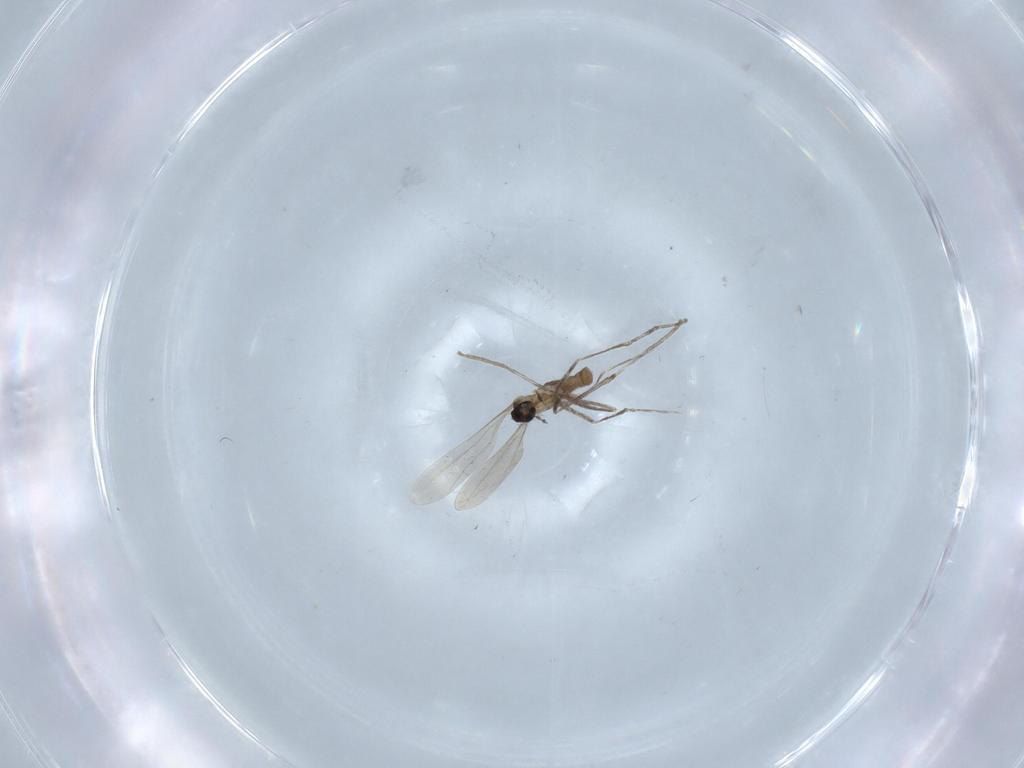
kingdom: Animalia
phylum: Arthropoda
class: Insecta
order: Diptera
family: Cecidomyiidae
